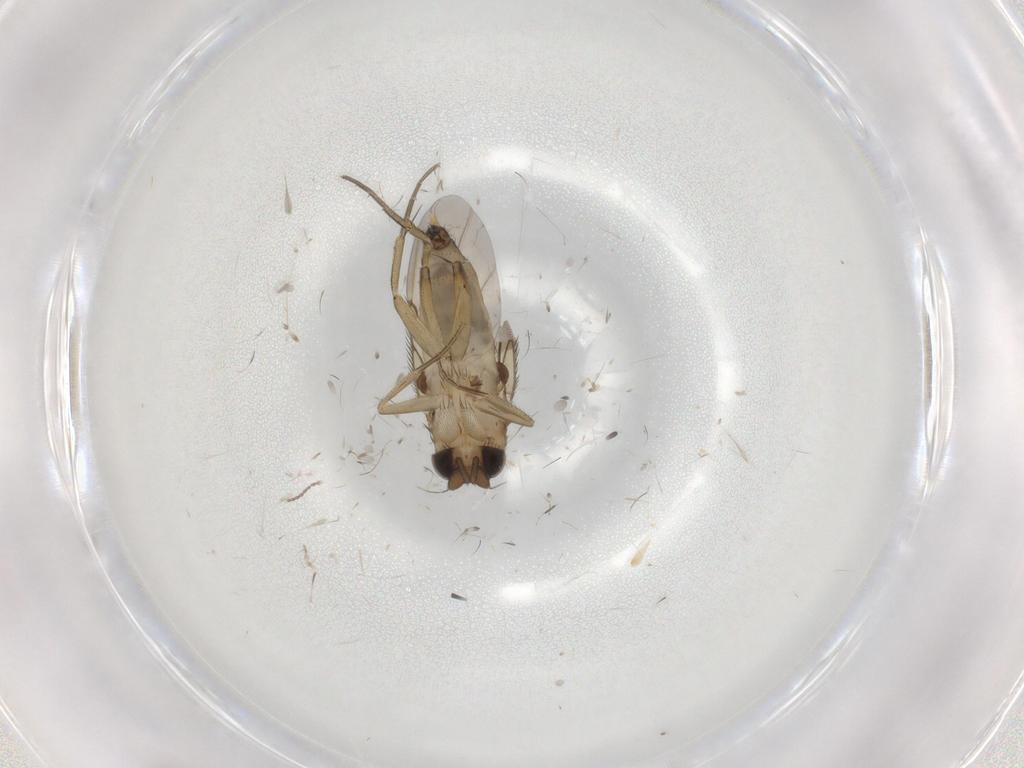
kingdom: Animalia
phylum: Arthropoda
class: Insecta
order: Diptera
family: Phoridae
